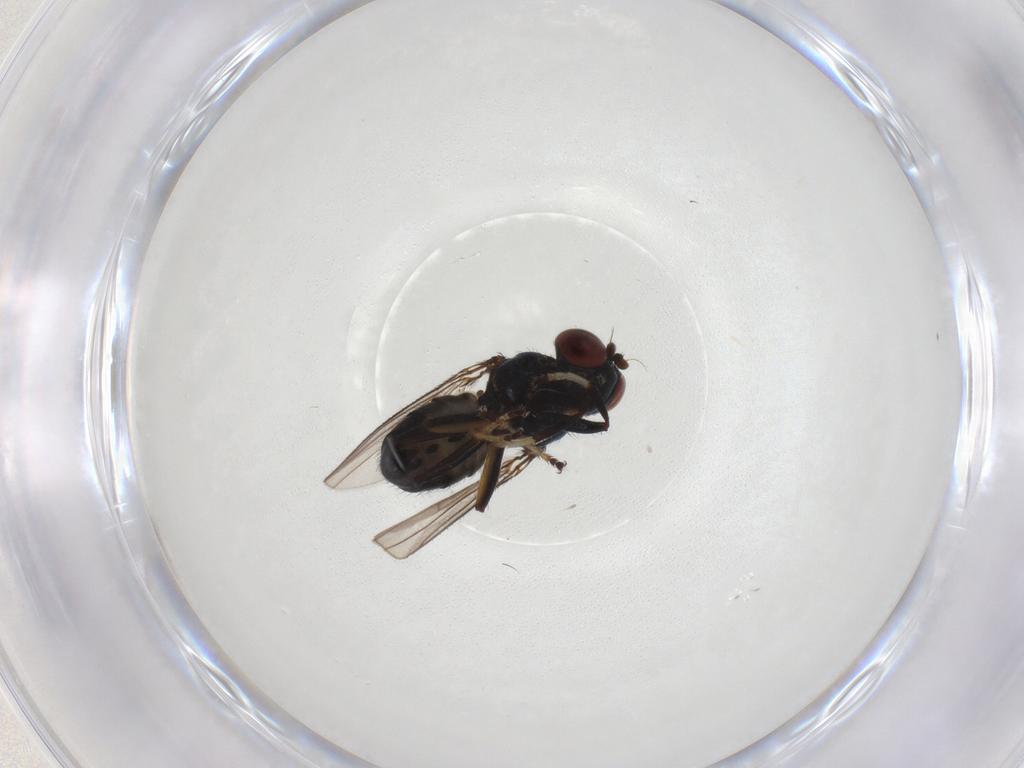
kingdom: Animalia
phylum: Arthropoda
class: Insecta
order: Diptera
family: Ephydridae
